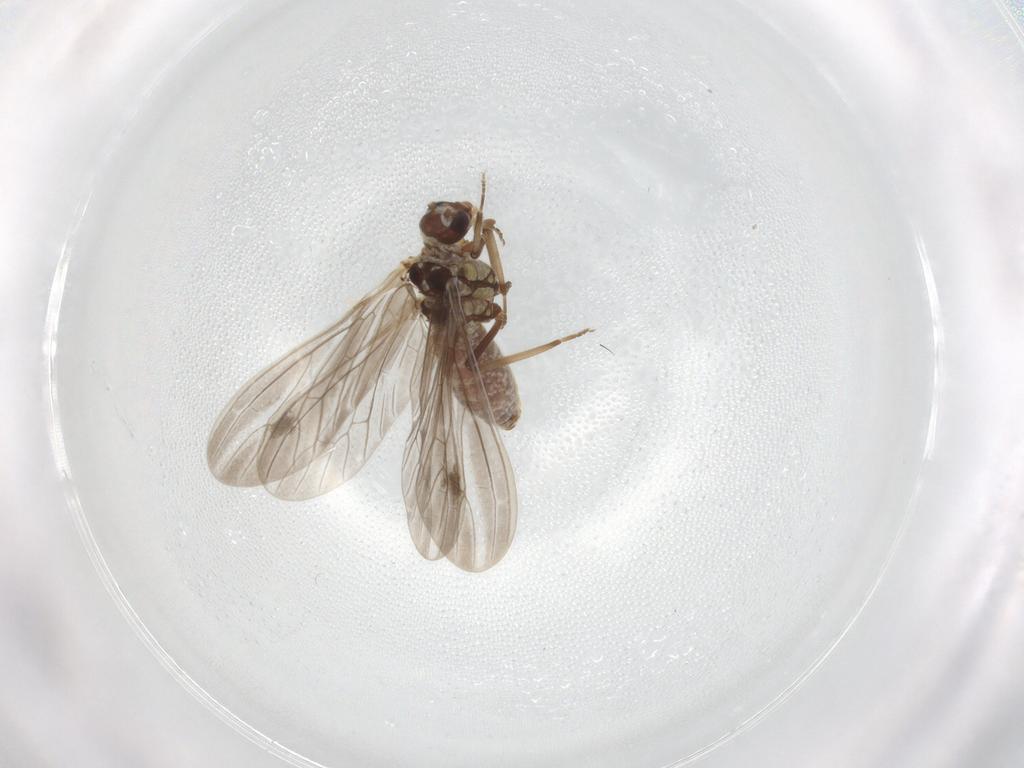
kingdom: Animalia
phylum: Arthropoda
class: Insecta
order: Neuroptera
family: Coniopterygidae
